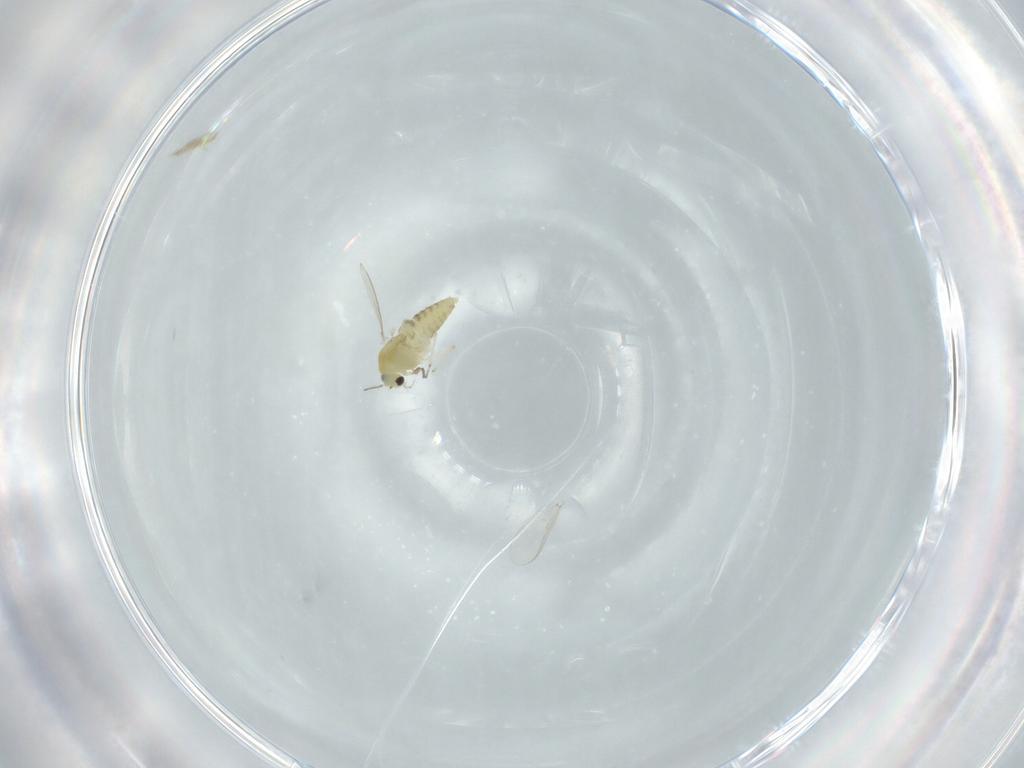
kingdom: Animalia
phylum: Arthropoda
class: Insecta
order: Diptera
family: Chironomidae
